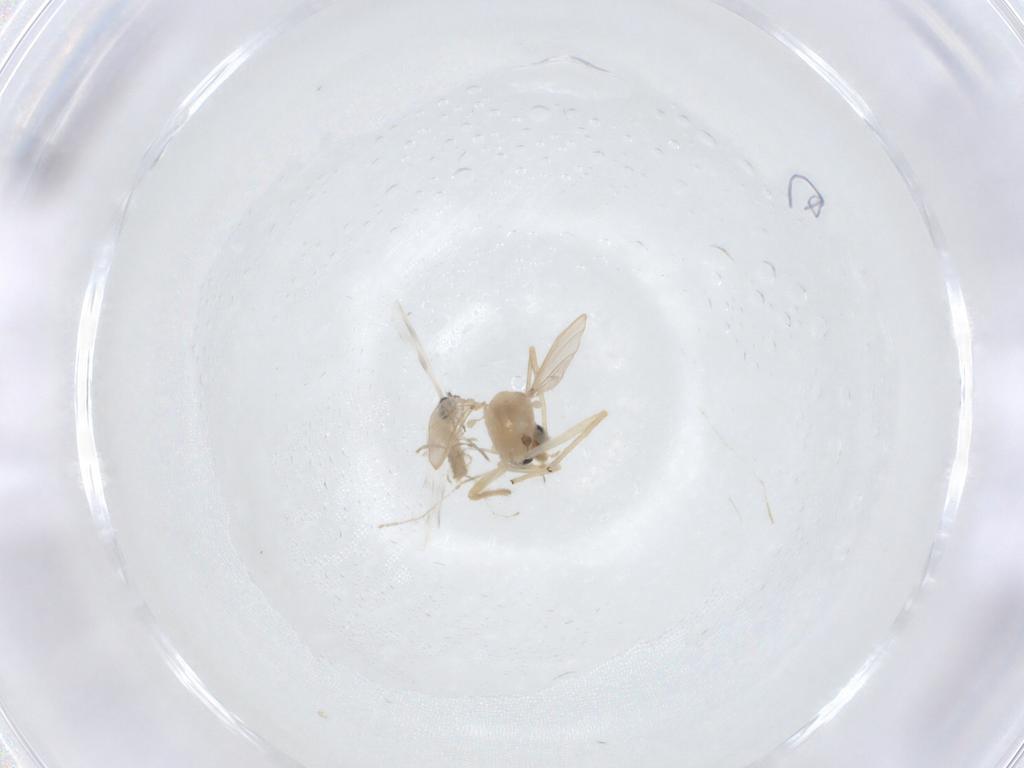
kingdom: Animalia
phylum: Arthropoda
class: Insecta
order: Diptera
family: Cecidomyiidae
